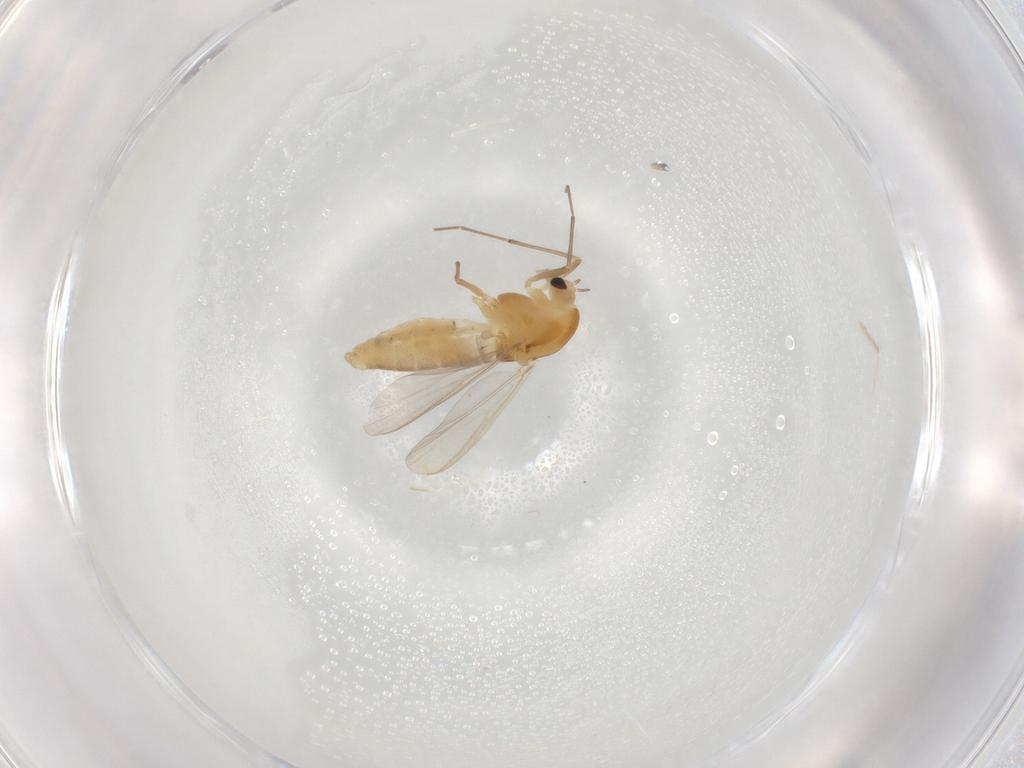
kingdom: Animalia
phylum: Arthropoda
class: Insecta
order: Diptera
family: Chironomidae
